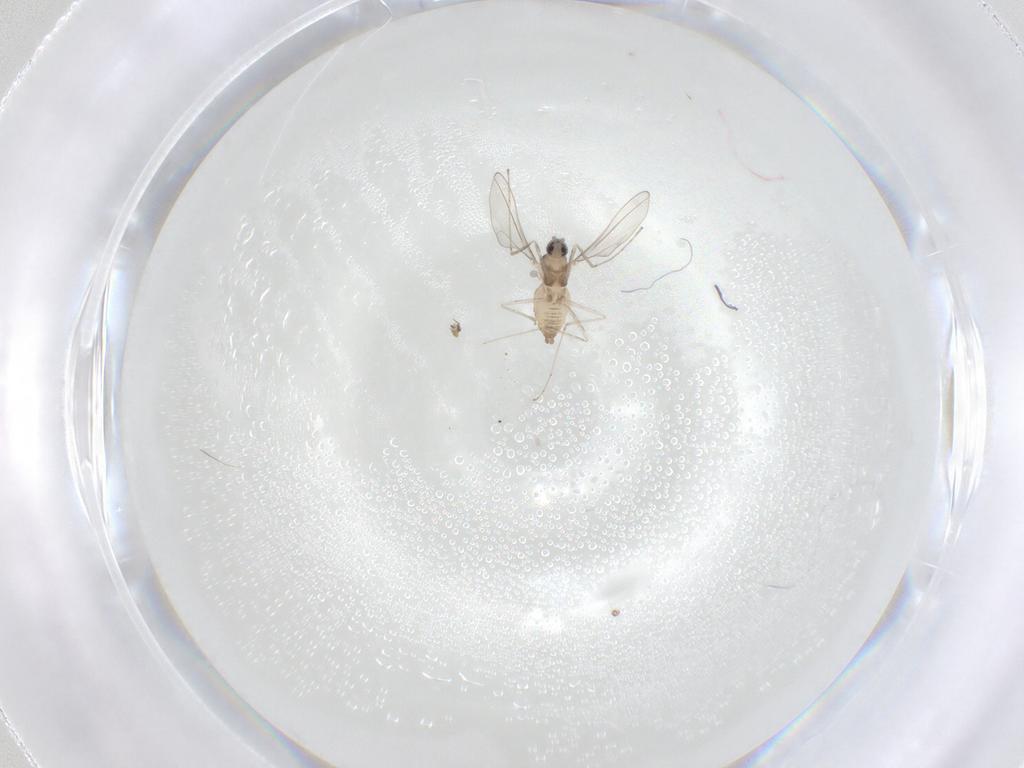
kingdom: Animalia
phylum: Arthropoda
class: Insecta
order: Diptera
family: Cecidomyiidae
